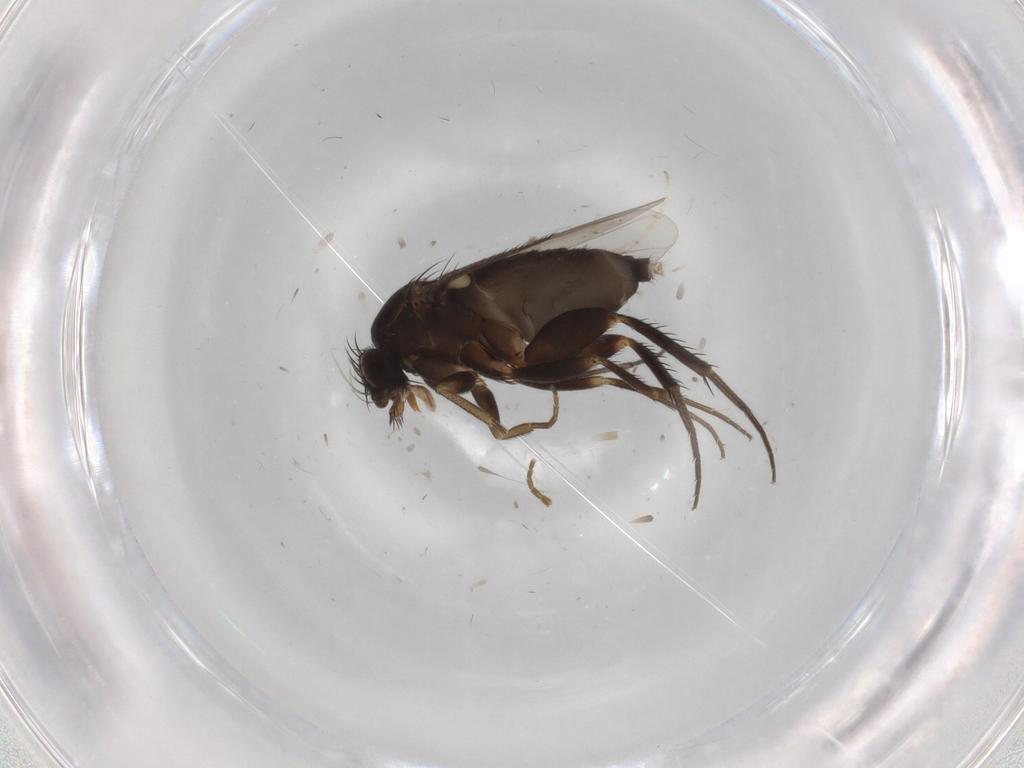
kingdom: Animalia
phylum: Arthropoda
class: Insecta
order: Diptera
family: Phoridae
